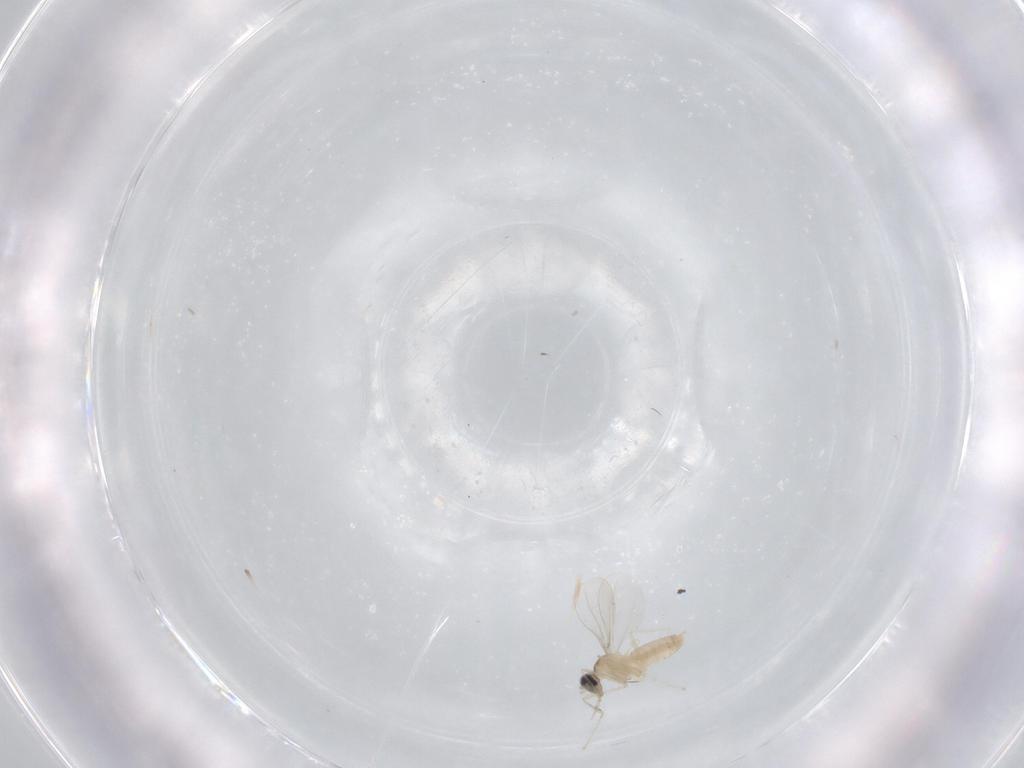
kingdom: Animalia
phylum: Arthropoda
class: Insecta
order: Diptera
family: Cecidomyiidae
